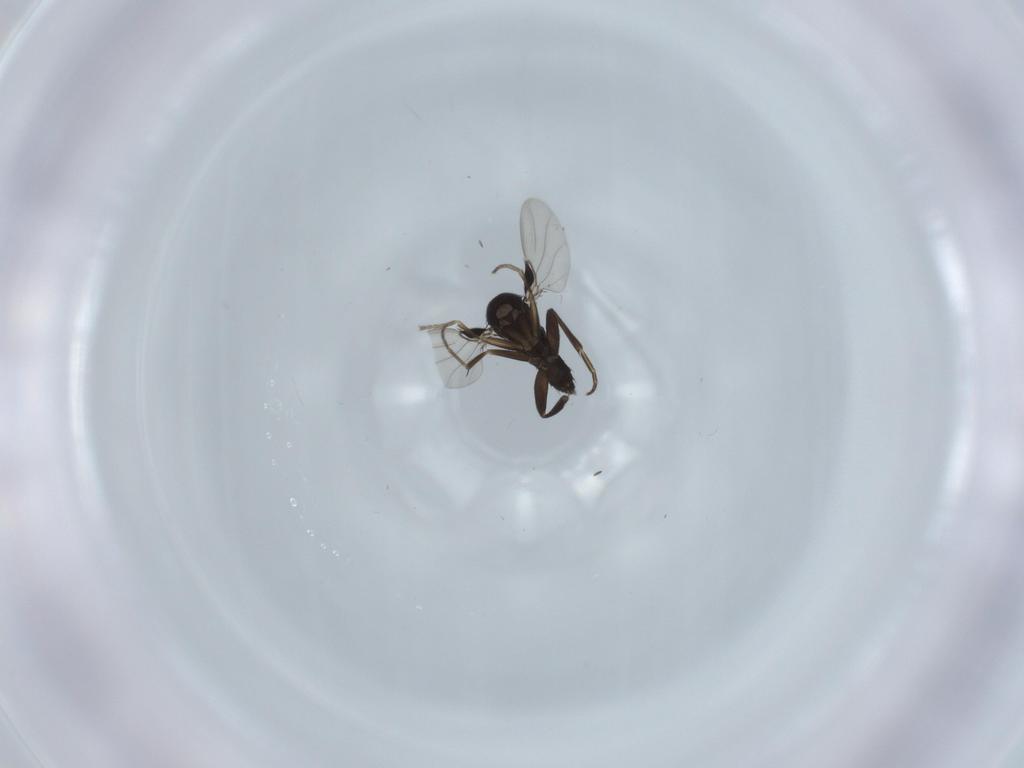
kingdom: Animalia
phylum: Arthropoda
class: Insecta
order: Diptera
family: Phoridae
